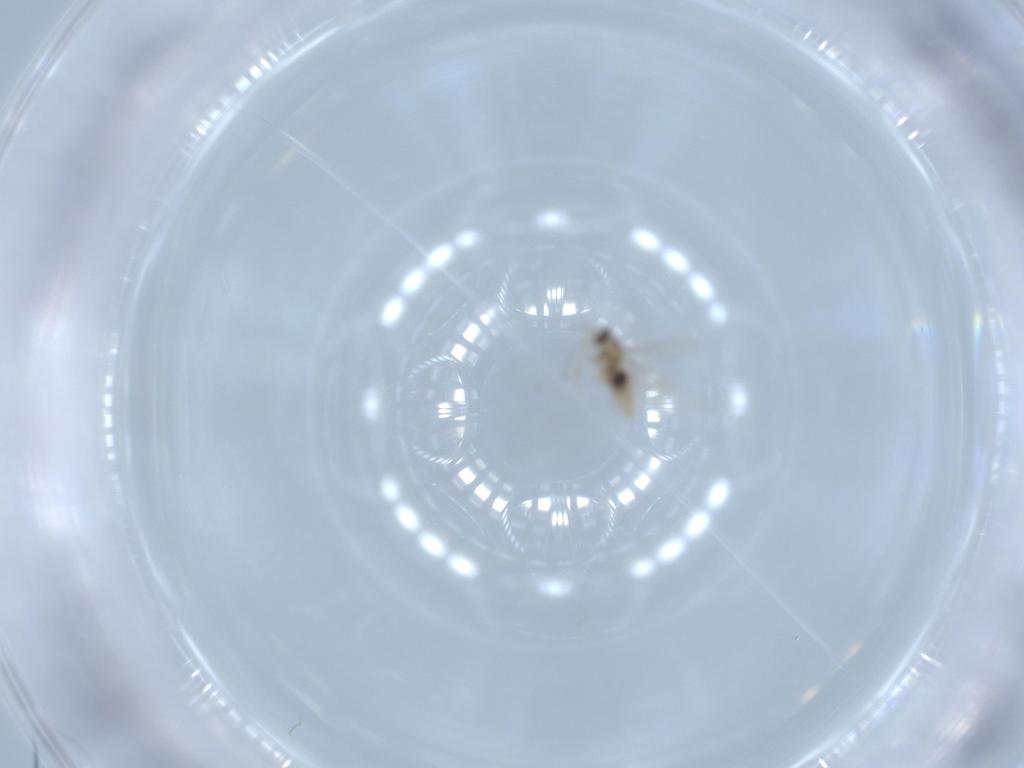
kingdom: Animalia
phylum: Arthropoda
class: Insecta
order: Diptera
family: Cecidomyiidae
